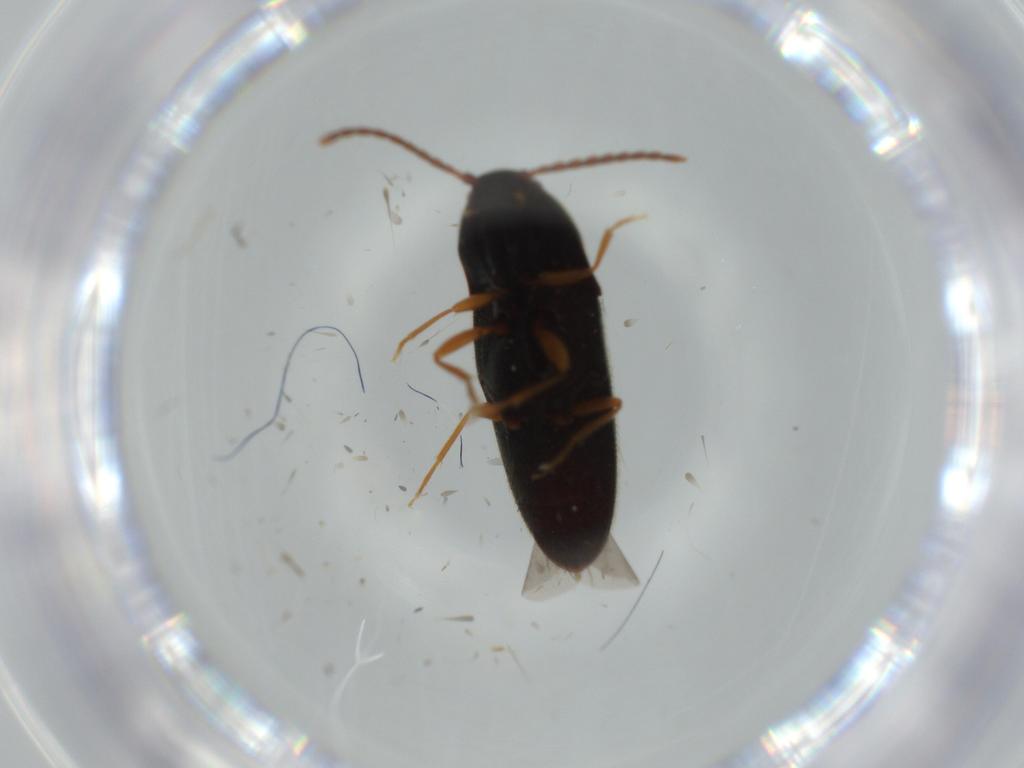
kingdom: Animalia
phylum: Arthropoda
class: Insecta
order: Coleoptera
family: Elateridae
